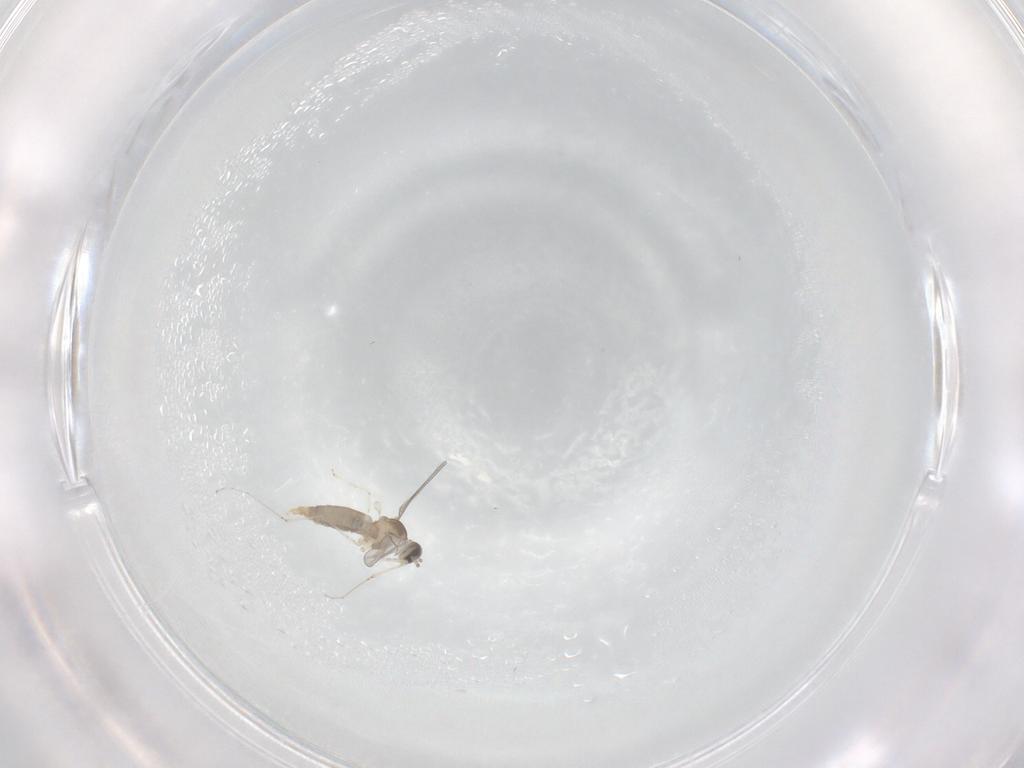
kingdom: Animalia
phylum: Arthropoda
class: Insecta
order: Diptera
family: Cecidomyiidae
